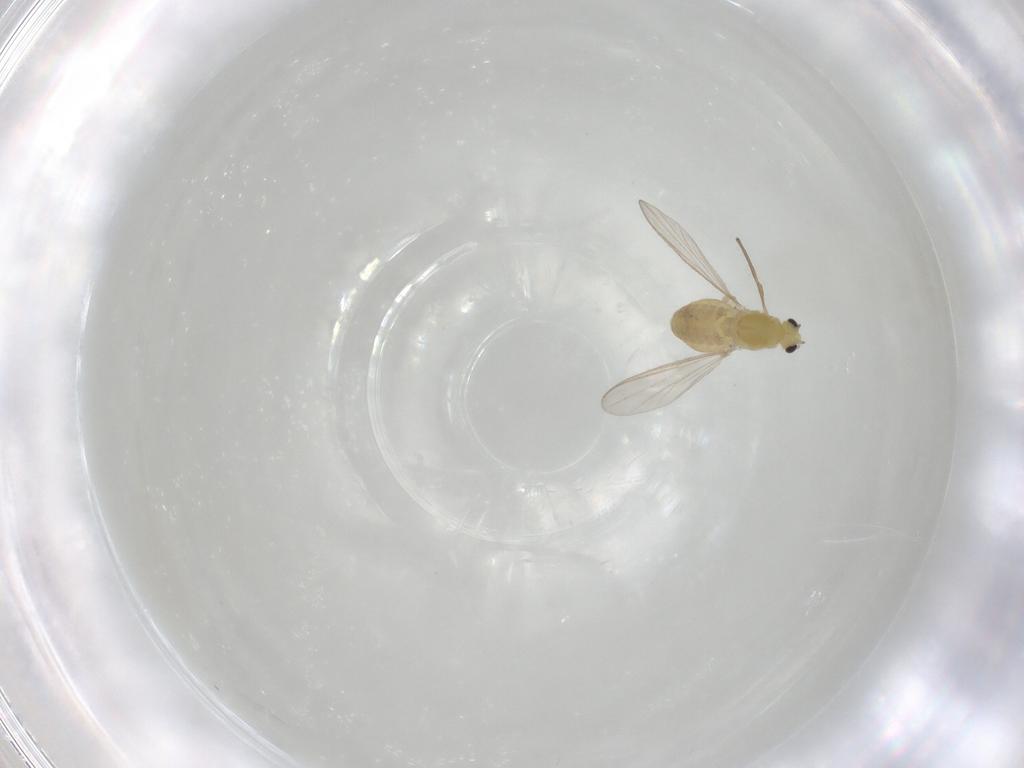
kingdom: Animalia
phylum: Arthropoda
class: Insecta
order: Diptera
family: Chironomidae
